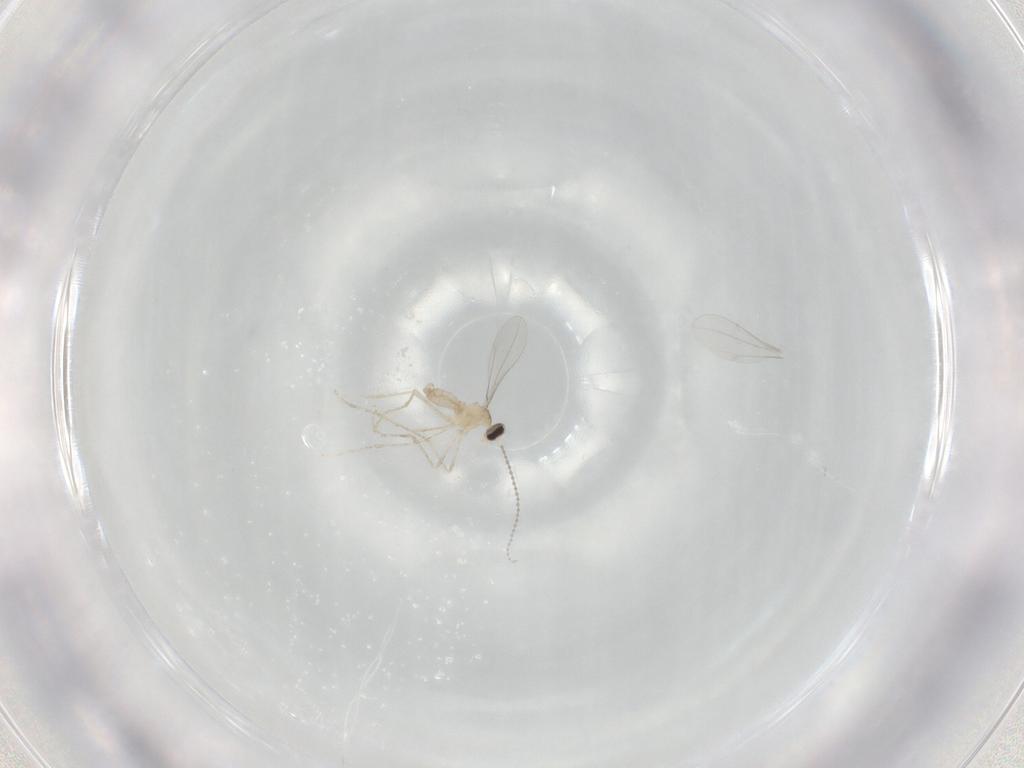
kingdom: Animalia
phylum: Arthropoda
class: Insecta
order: Diptera
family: Cecidomyiidae
